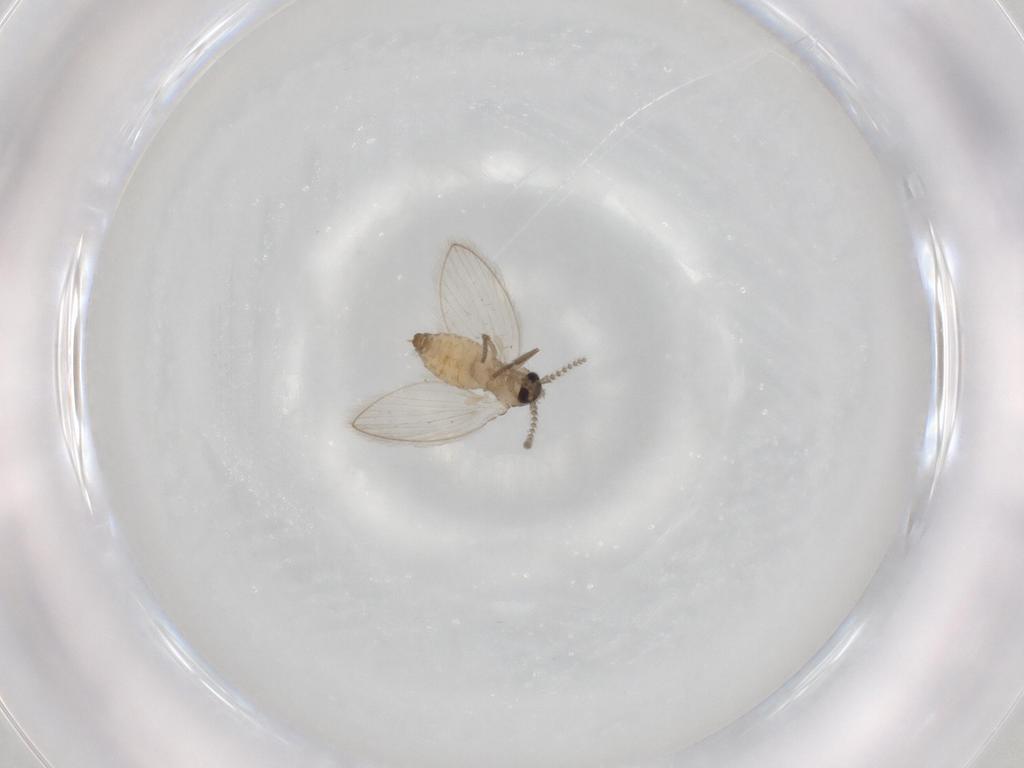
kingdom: Animalia
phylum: Arthropoda
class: Insecta
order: Diptera
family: Psychodidae
